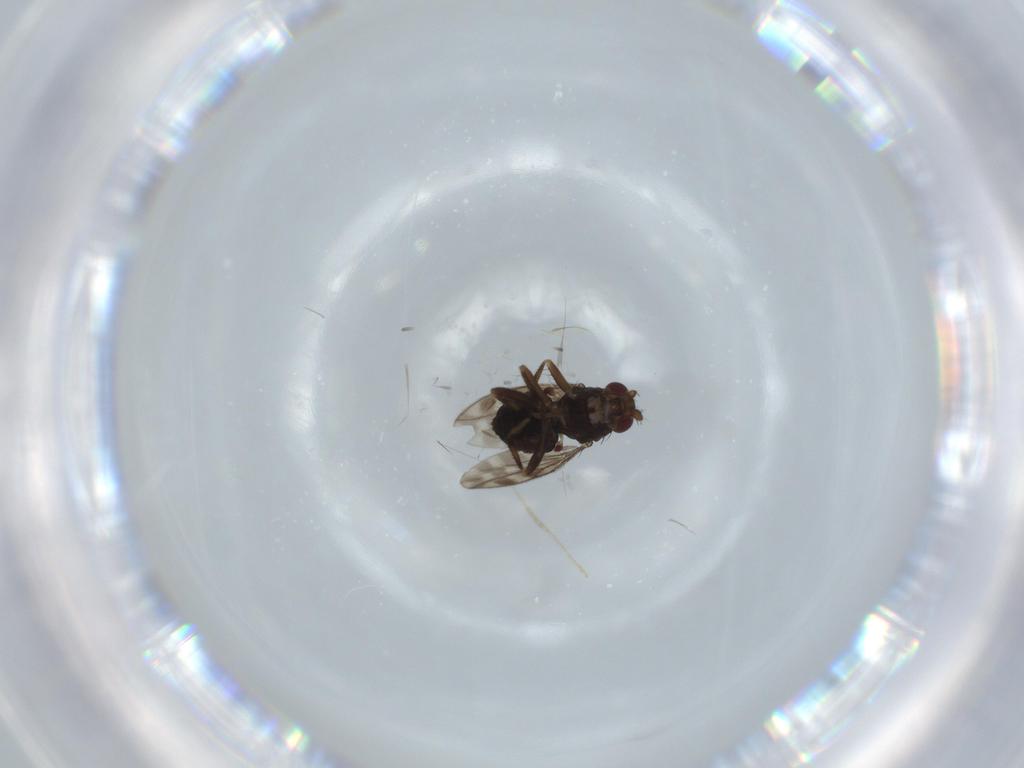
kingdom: Animalia
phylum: Arthropoda
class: Insecta
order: Diptera
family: Sphaeroceridae
